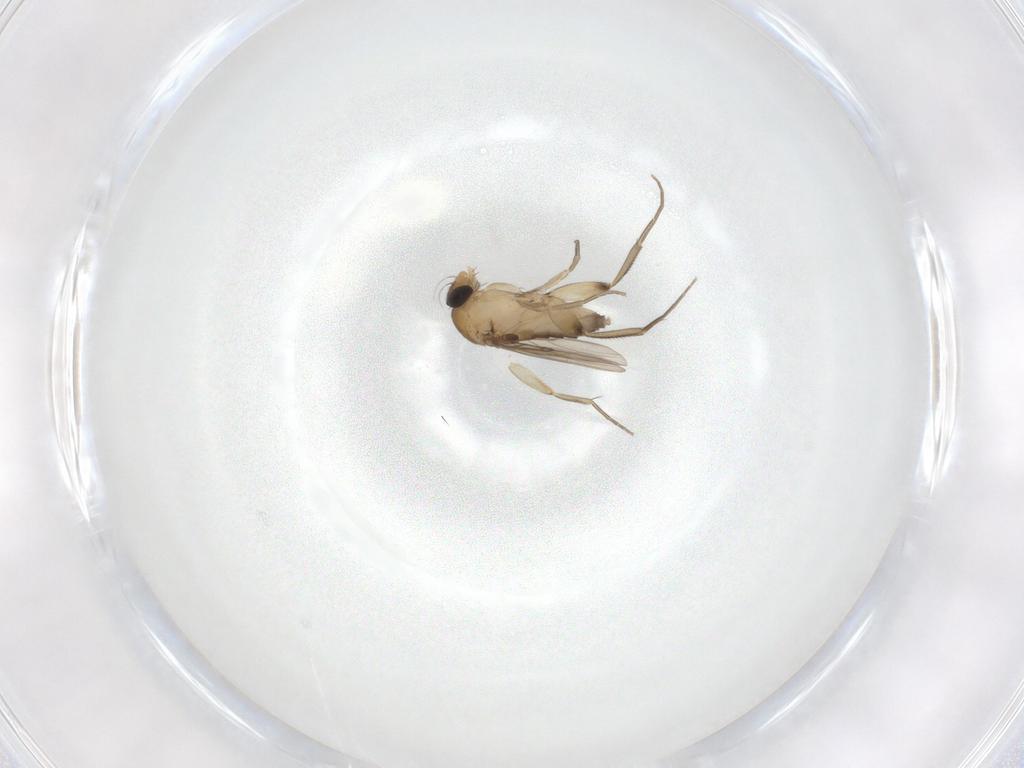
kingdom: Animalia
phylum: Arthropoda
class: Insecta
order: Diptera
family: Phoridae
